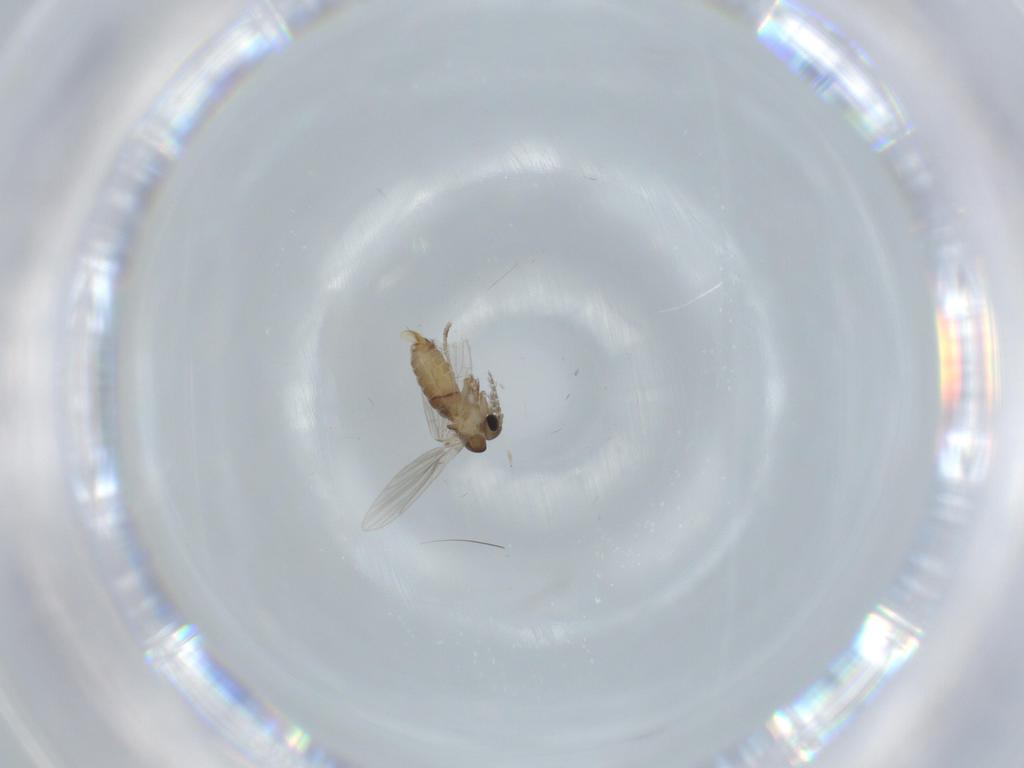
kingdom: Animalia
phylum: Arthropoda
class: Insecta
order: Diptera
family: Psychodidae
